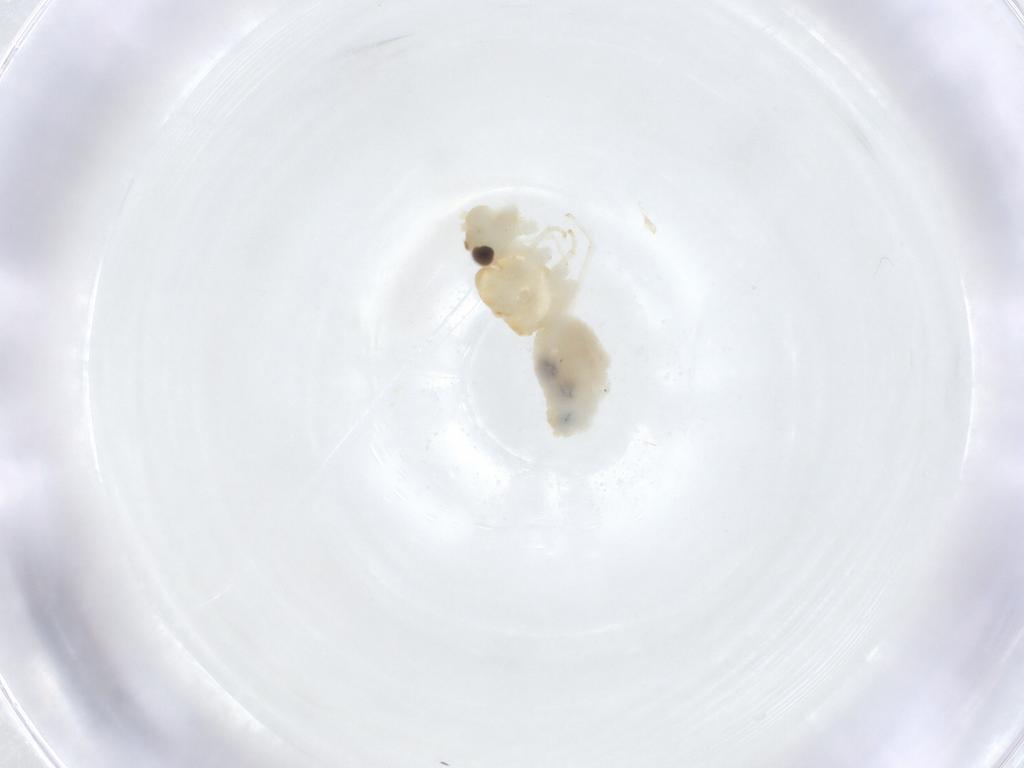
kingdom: Animalia
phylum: Arthropoda
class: Insecta
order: Psocodea
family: Caeciliusidae
